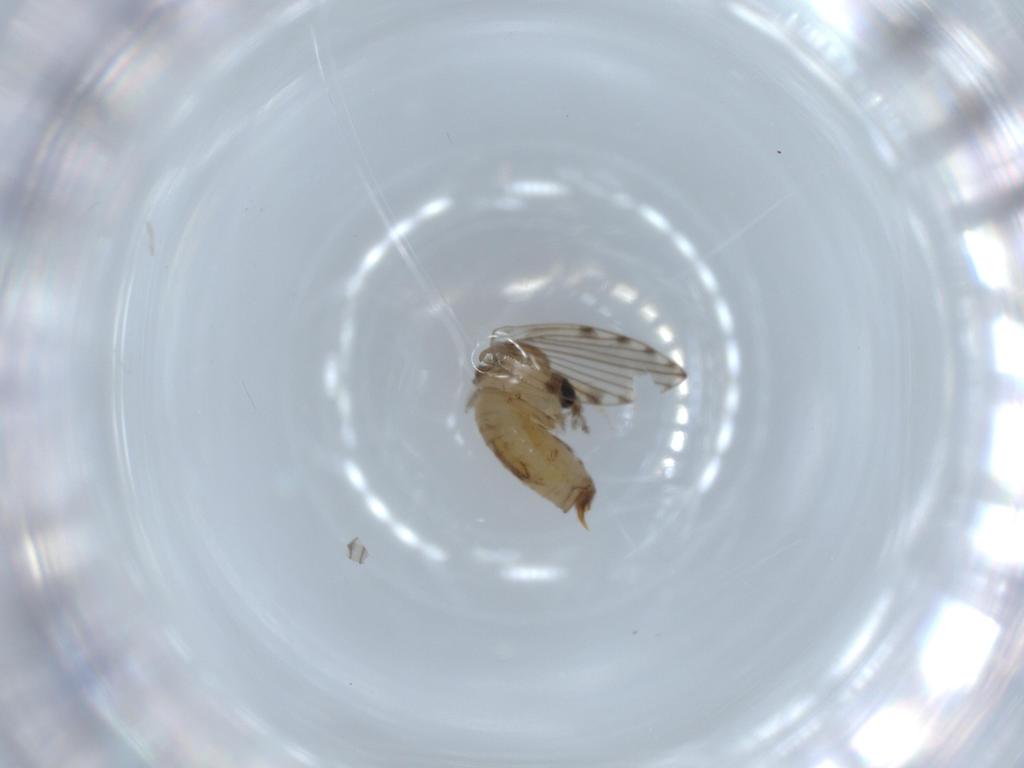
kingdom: Animalia
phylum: Arthropoda
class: Insecta
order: Diptera
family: Psychodidae
